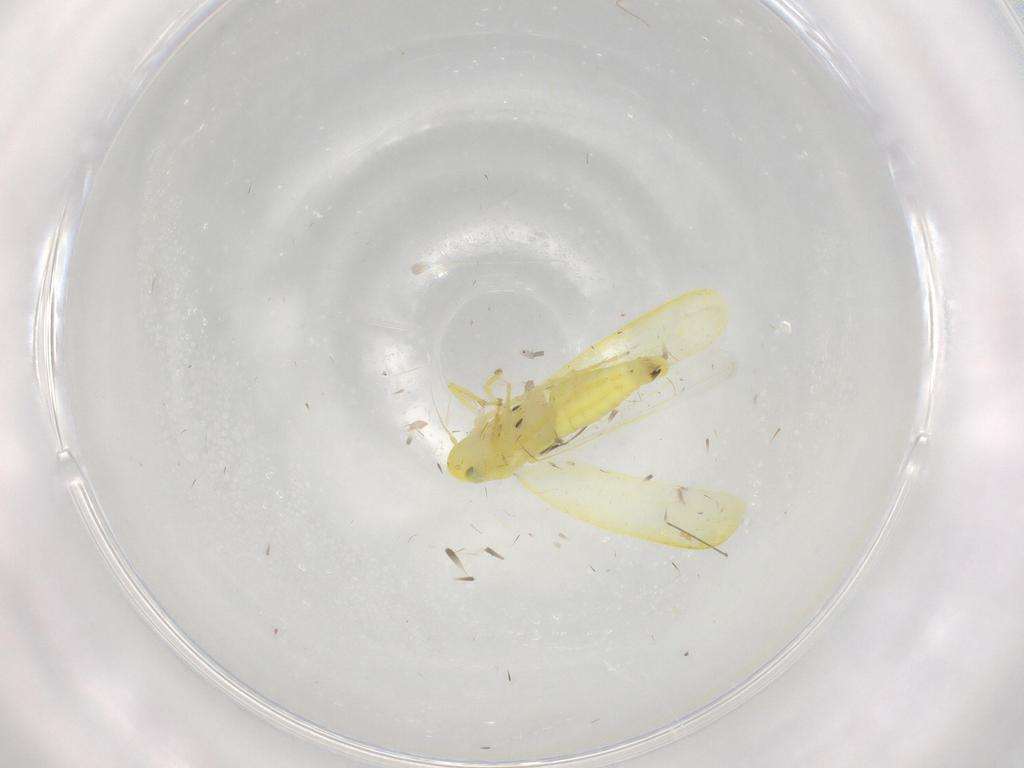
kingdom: Animalia
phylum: Arthropoda
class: Insecta
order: Hemiptera
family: Cicadellidae
